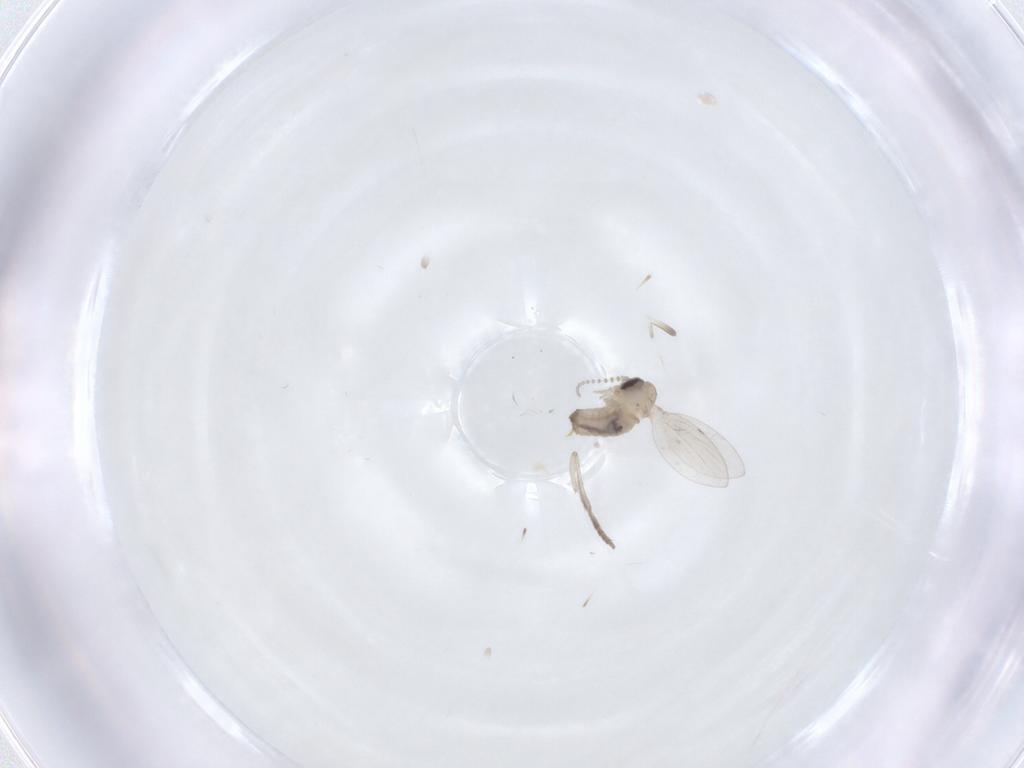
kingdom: Animalia
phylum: Arthropoda
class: Insecta
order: Diptera
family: Psychodidae
